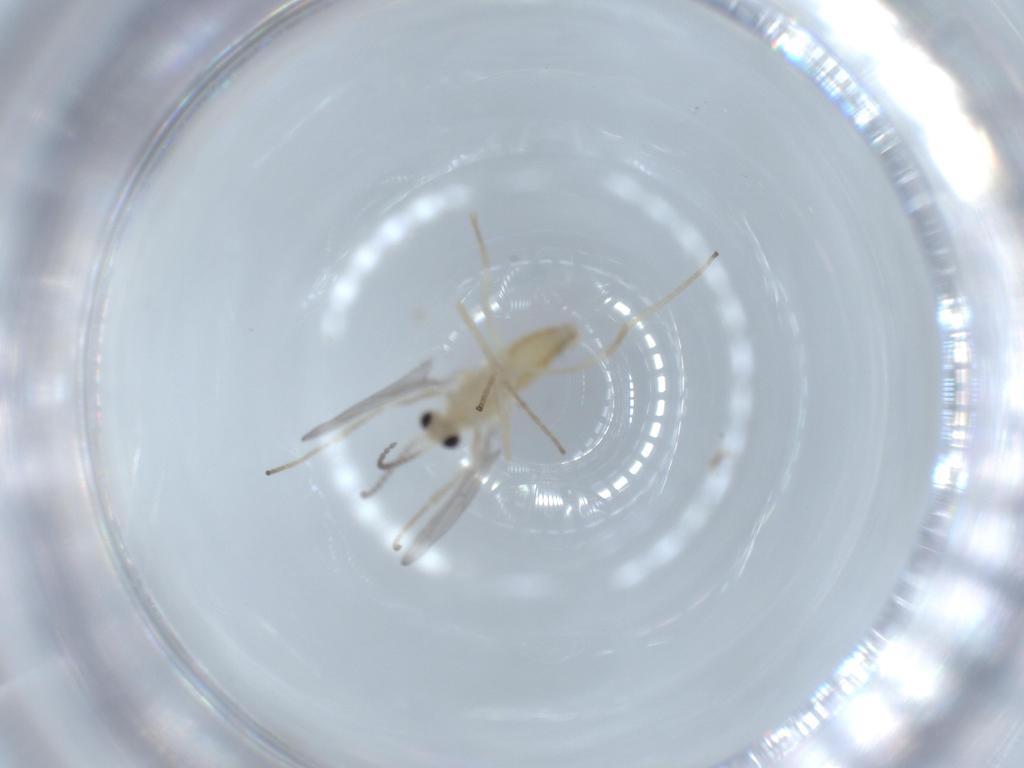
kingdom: Animalia
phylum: Arthropoda
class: Insecta
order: Diptera
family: Cecidomyiidae
